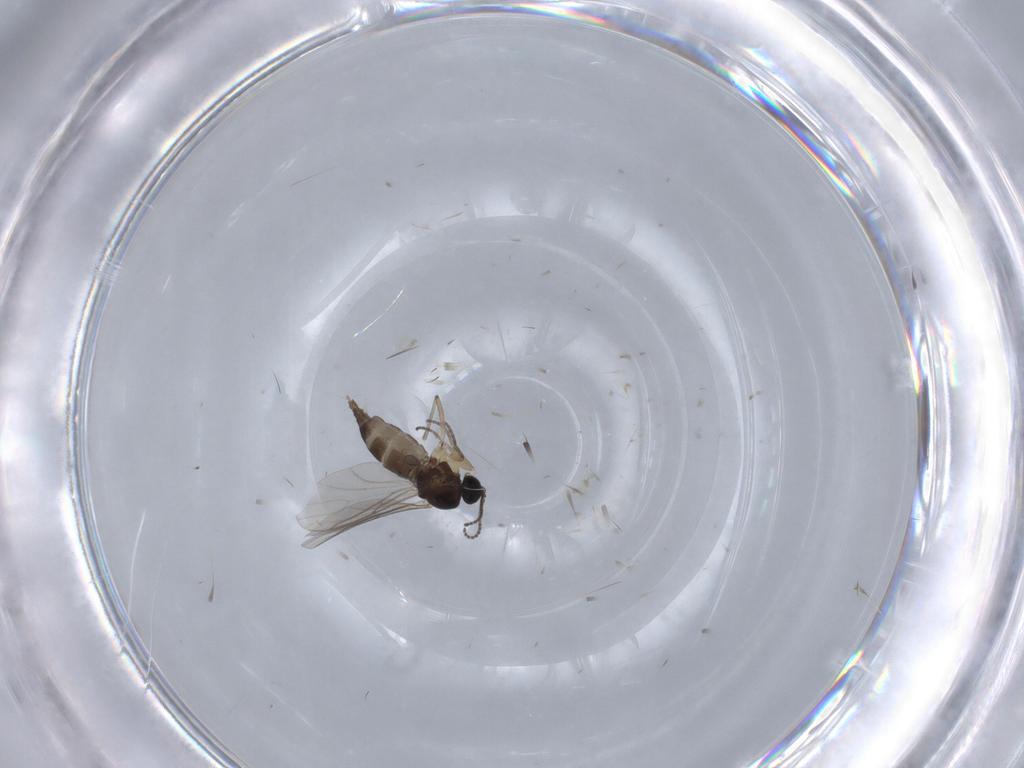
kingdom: Animalia
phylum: Arthropoda
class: Insecta
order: Diptera
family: Sciaridae
